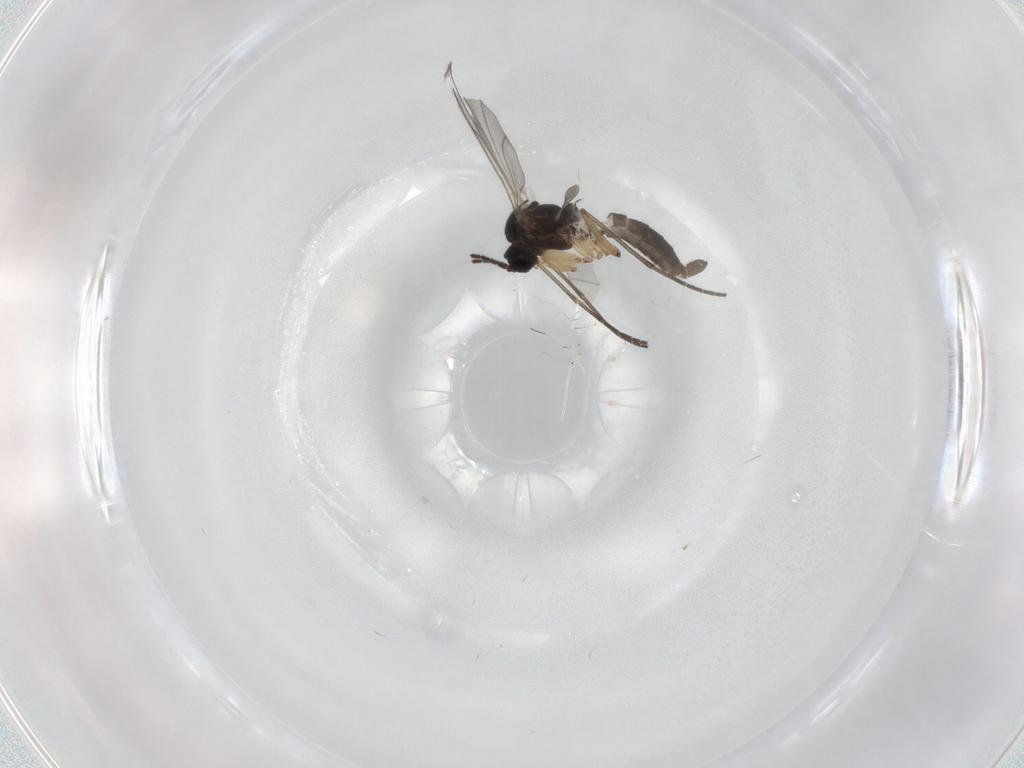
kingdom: Animalia
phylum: Arthropoda
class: Insecta
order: Diptera
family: Sciaridae
